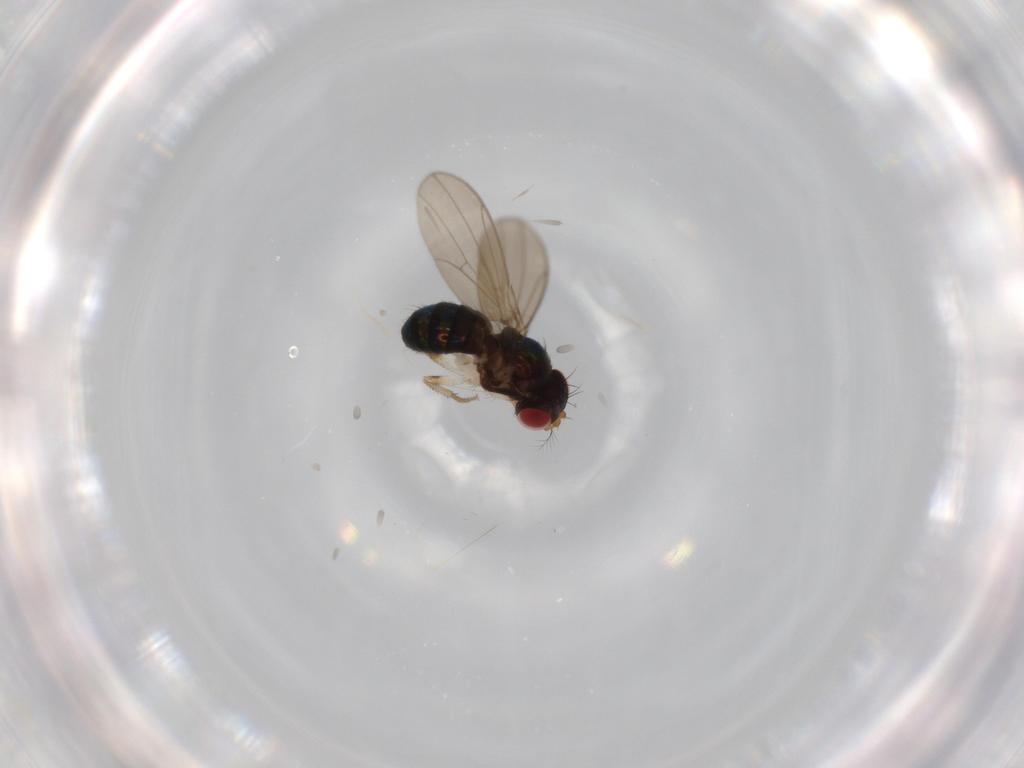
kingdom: Animalia
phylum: Arthropoda
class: Insecta
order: Diptera
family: Drosophilidae
